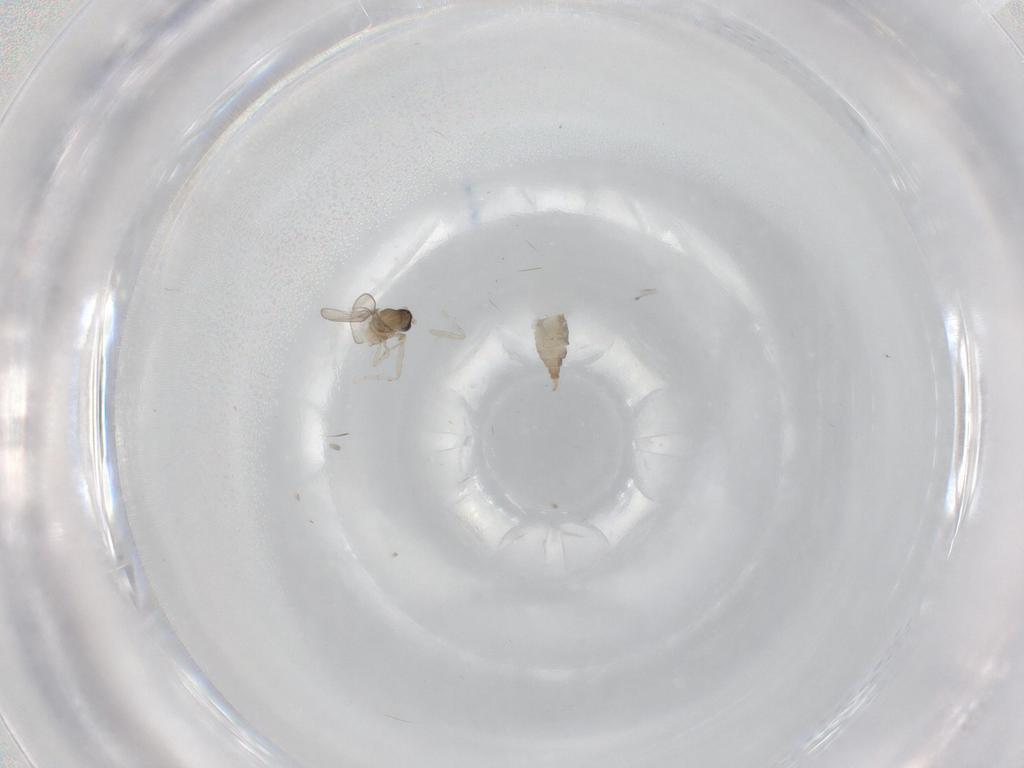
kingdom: Animalia
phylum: Arthropoda
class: Insecta
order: Diptera
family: Cecidomyiidae
